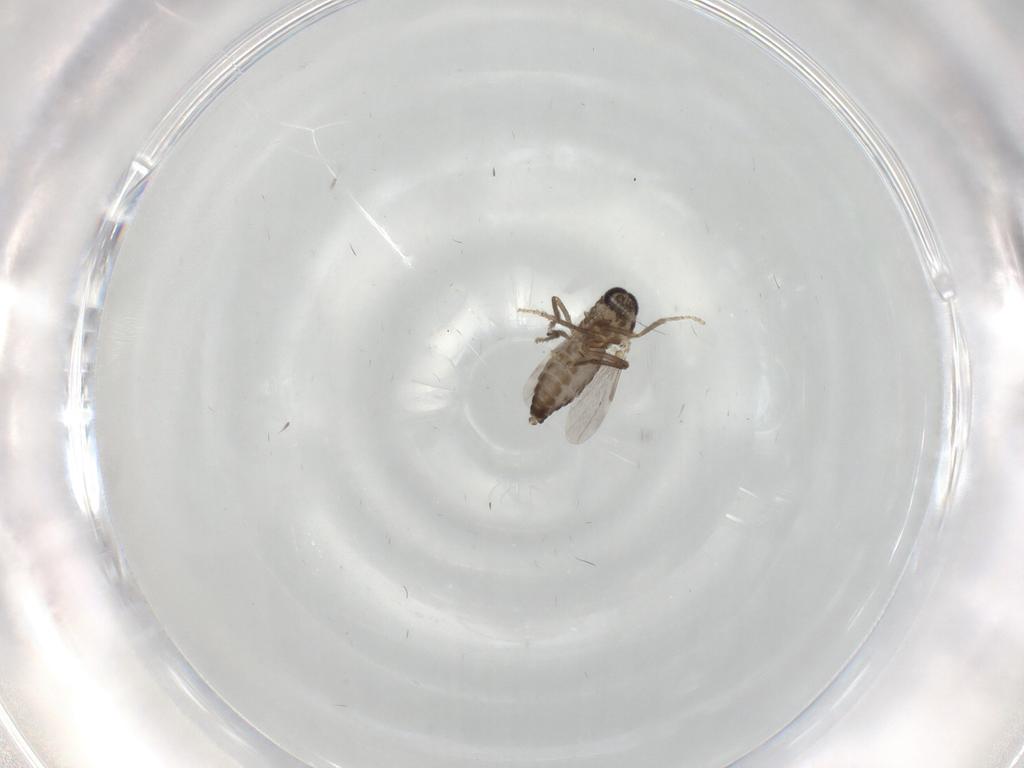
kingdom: Animalia
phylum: Arthropoda
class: Insecta
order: Diptera
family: Ceratopogonidae
